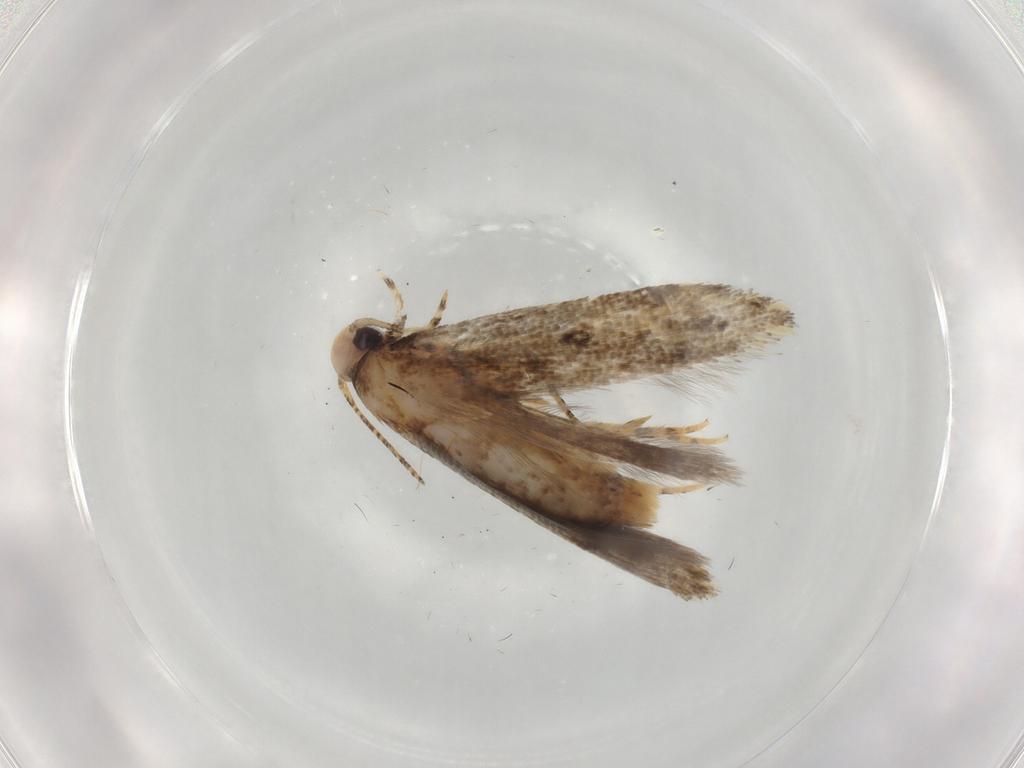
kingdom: Animalia
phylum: Arthropoda
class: Insecta
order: Lepidoptera
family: Gelechiidae
